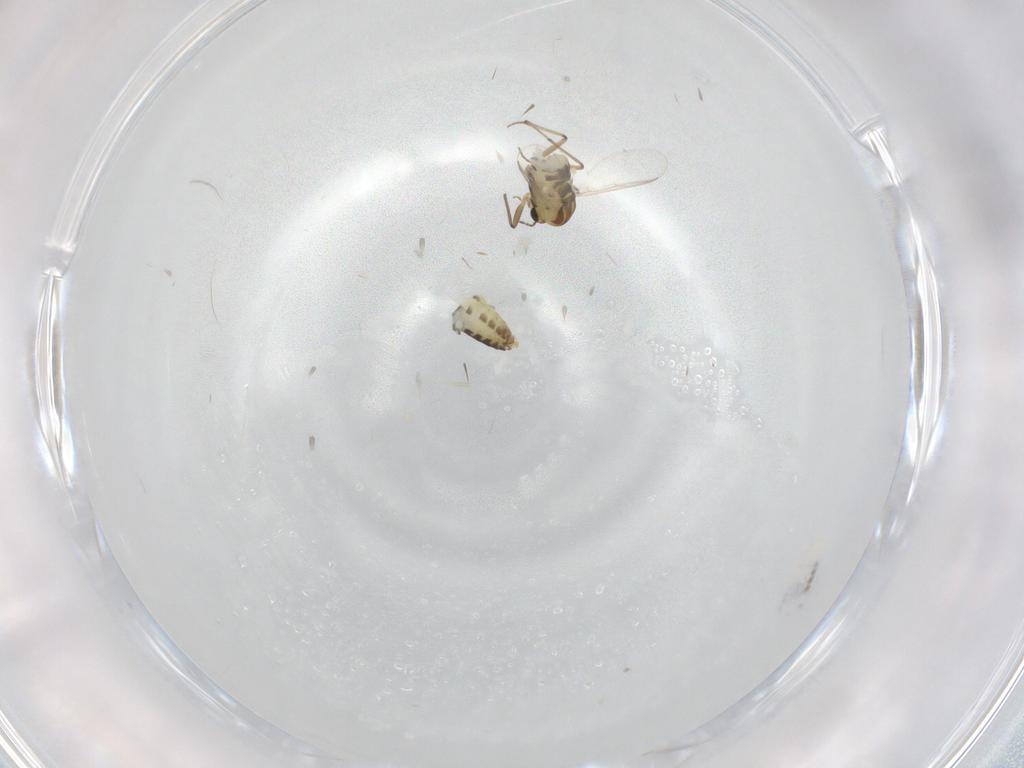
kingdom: Animalia
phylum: Arthropoda
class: Insecta
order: Diptera
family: Chironomidae
